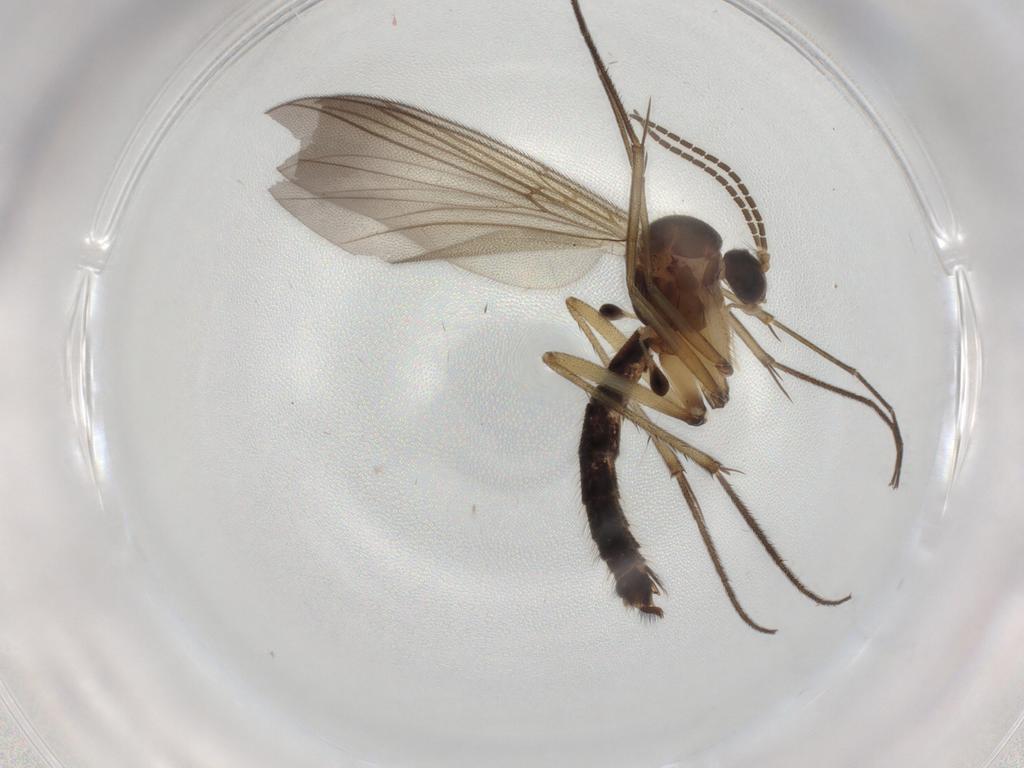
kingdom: Animalia
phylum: Arthropoda
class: Insecta
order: Diptera
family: Mycetophilidae
